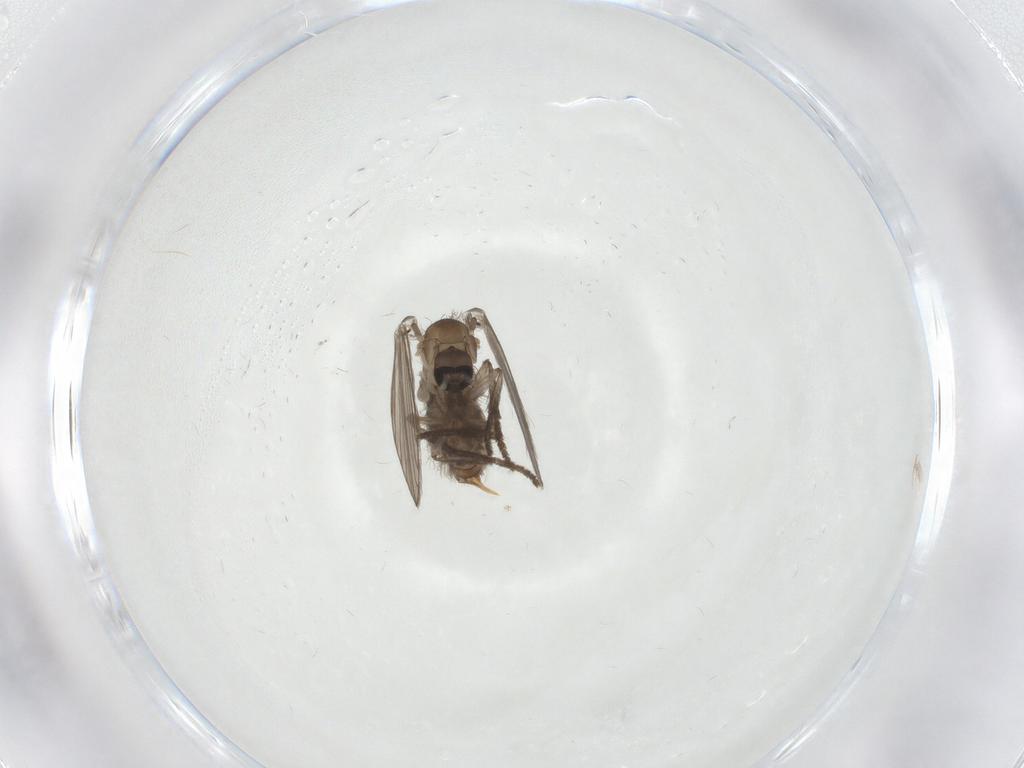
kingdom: Animalia
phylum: Arthropoda
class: Insecta
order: Diptera
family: Psychodidae
